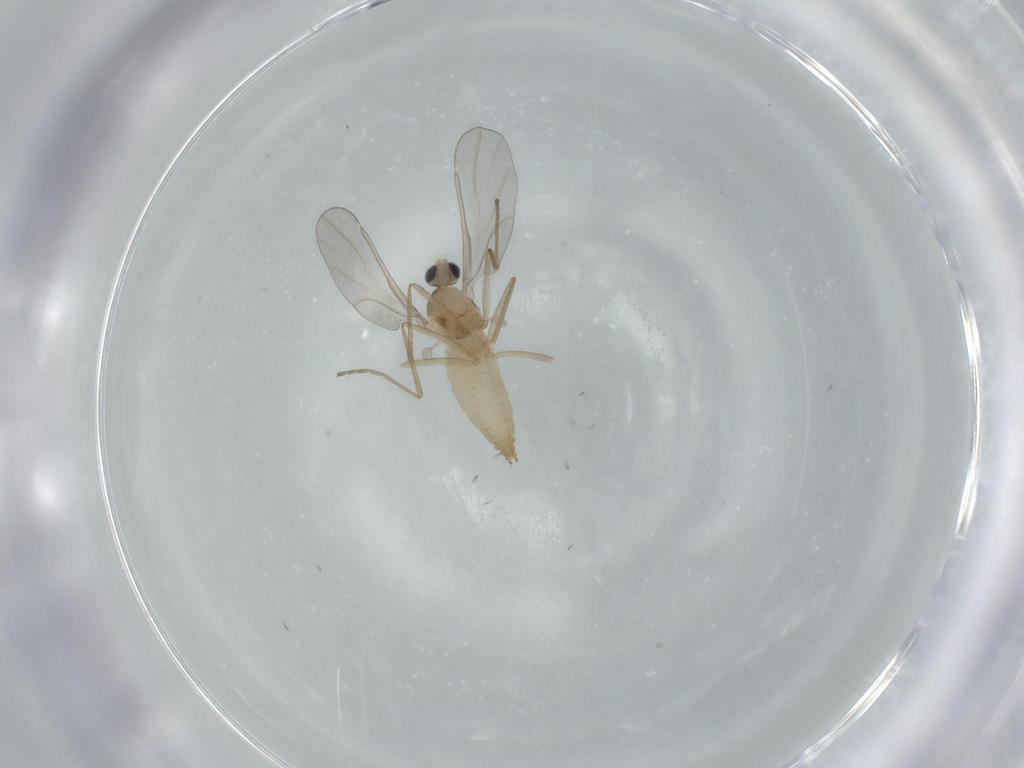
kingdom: Animalia
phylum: Arthropoda
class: Insecta
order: Diptera
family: Cecidomyiidae
